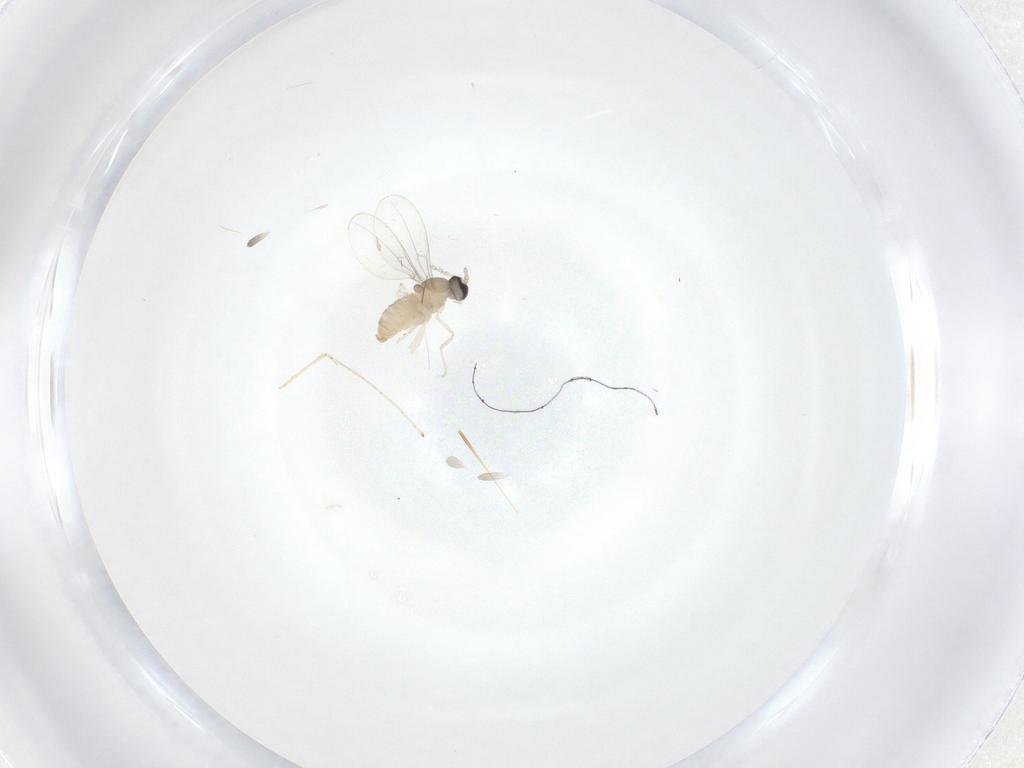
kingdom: Animalia
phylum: Arthropoda
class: Insecta
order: Diptera
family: Cecidomyiidae
